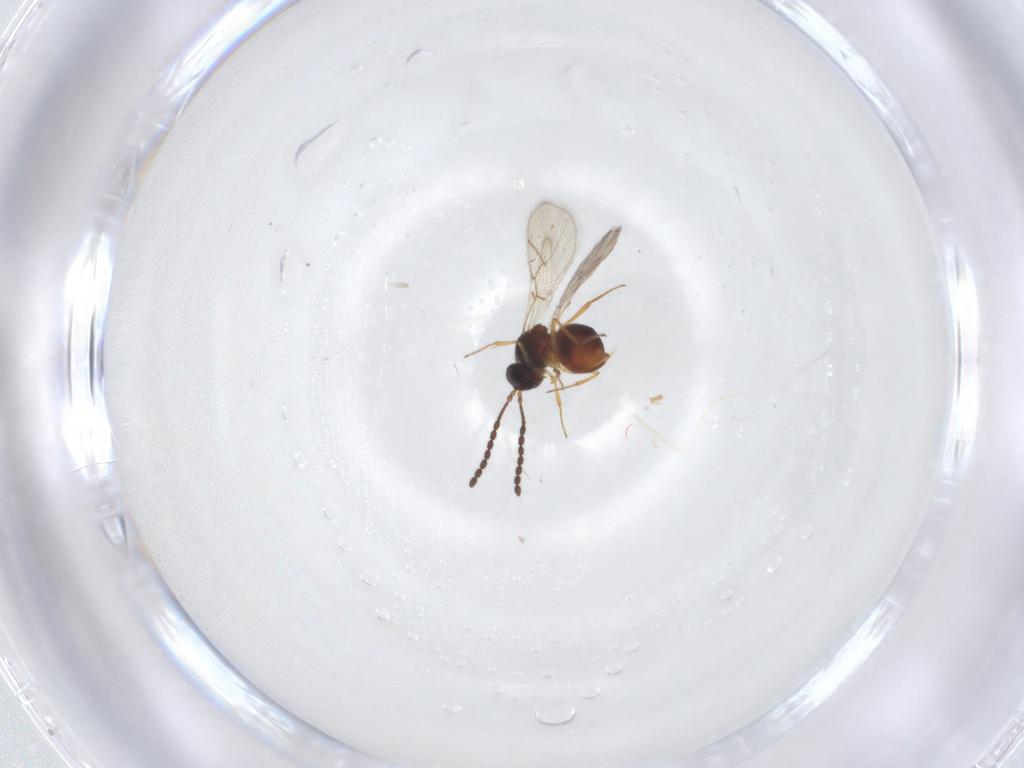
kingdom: Animalia
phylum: Arthropoda
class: Insecta
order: Hymenoptera
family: Figitidae
